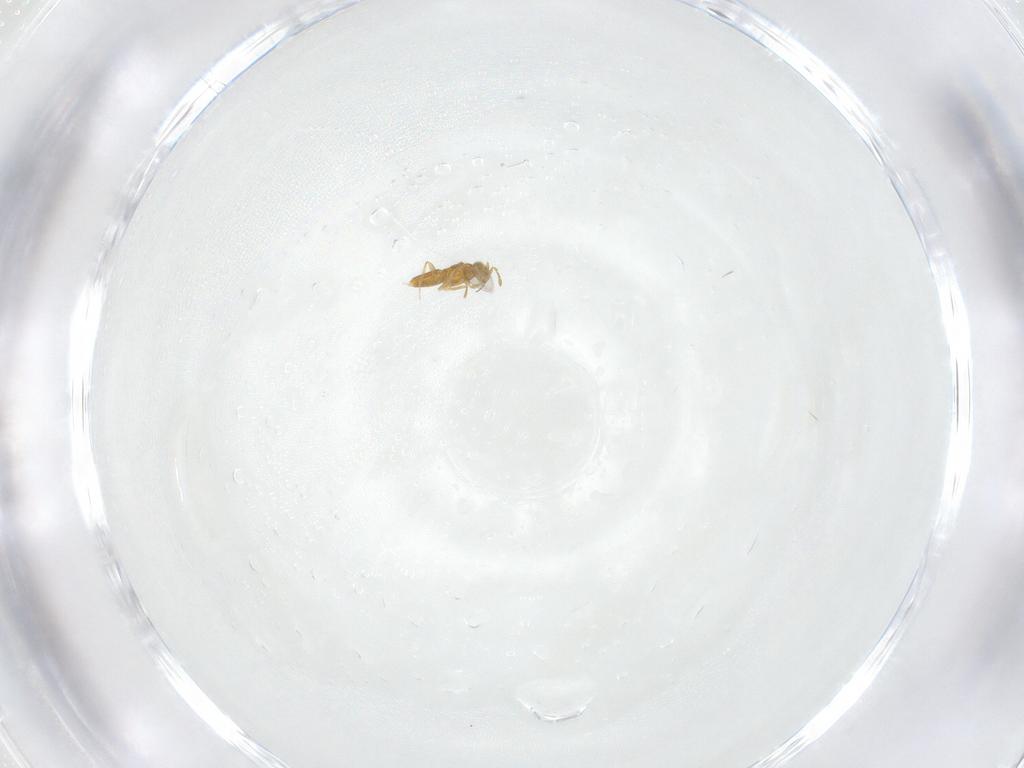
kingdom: Animalia
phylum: Arthropoda
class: Insecta
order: Hymenoptera
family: Aphelinidae
